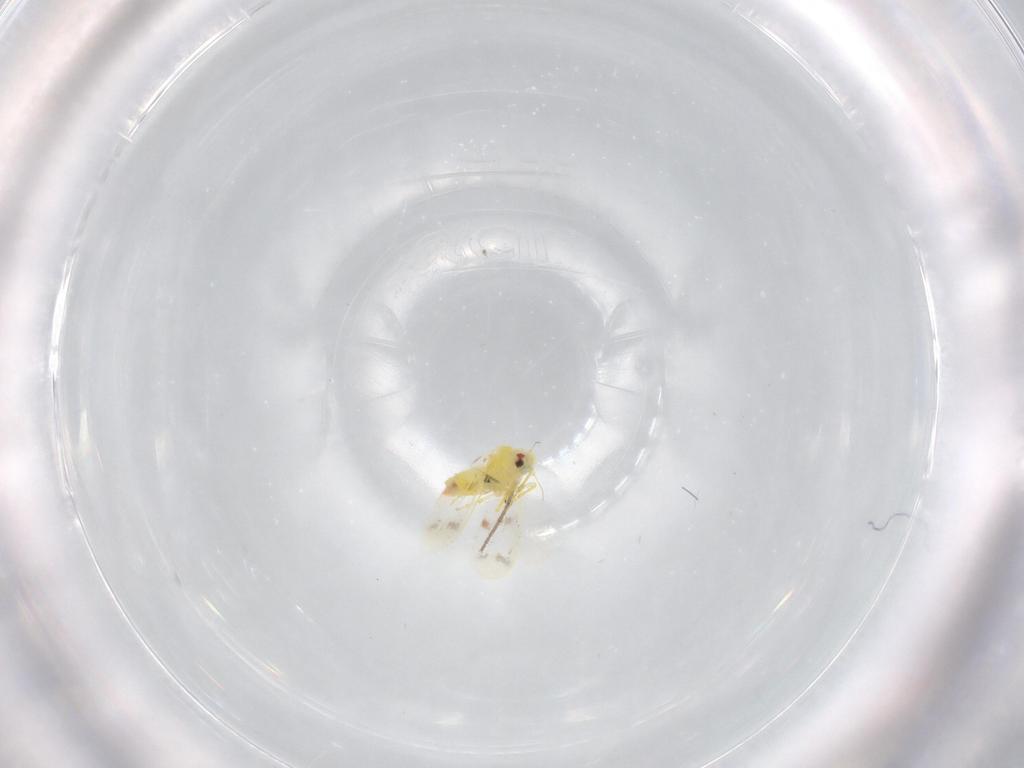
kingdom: Animalia
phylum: Arthropoda
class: Insecta
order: Hemiptera
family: Aleyrodidae
